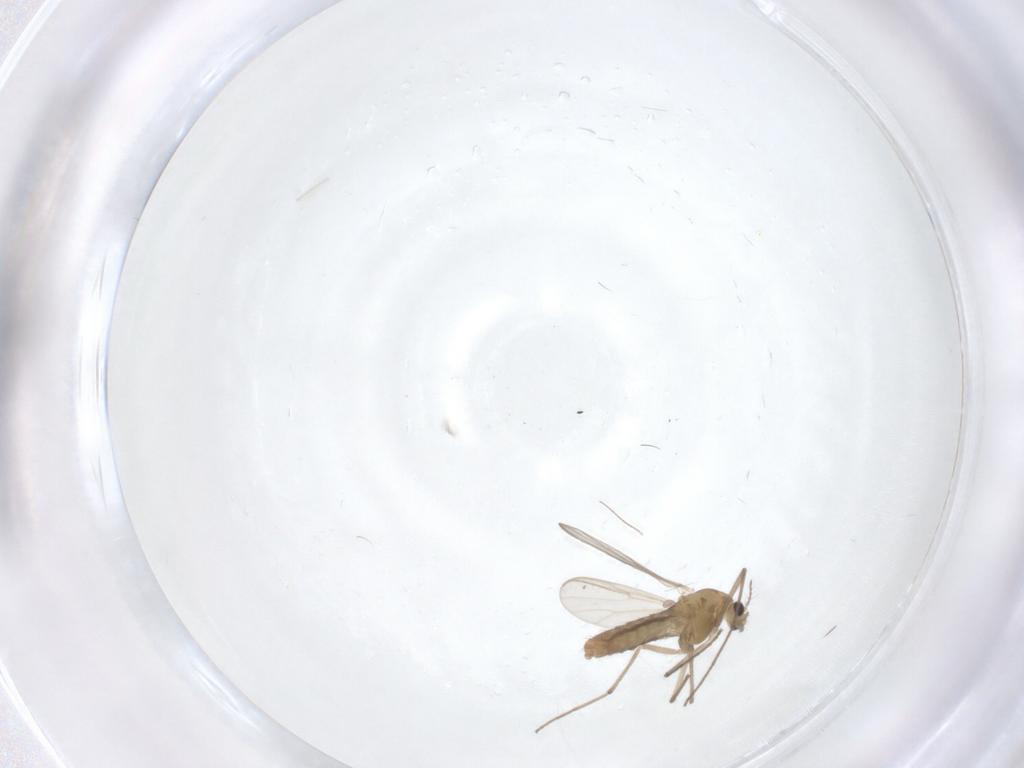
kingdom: Animalia
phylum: Arthropoda
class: Insecta
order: Diptera
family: Chironomidae
